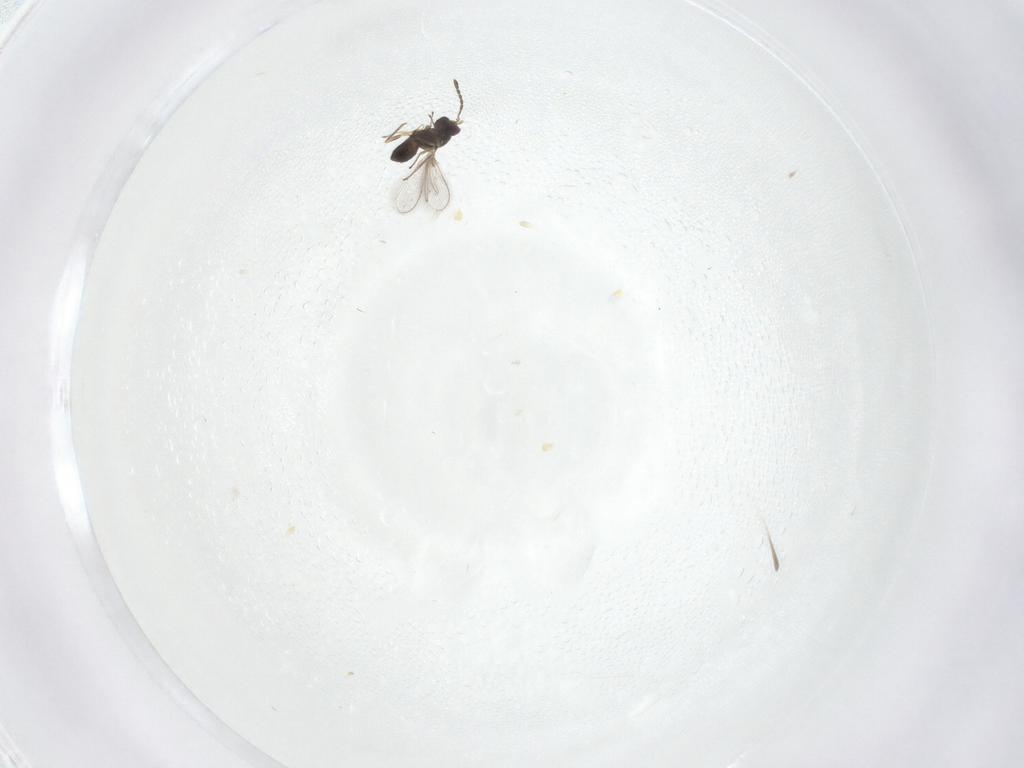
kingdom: Animalia
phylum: Arthropoda
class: Insecta
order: Hymenoptera
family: Mymaridae
